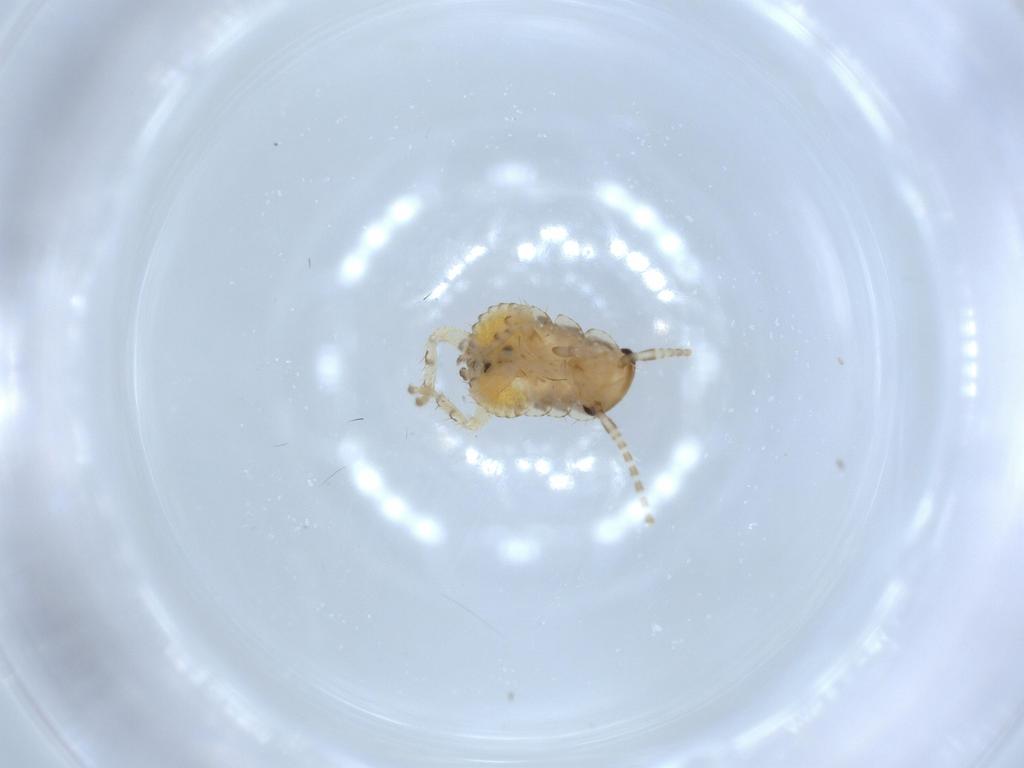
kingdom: Animalia
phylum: Arthropoda
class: Insecta
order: Blattodea
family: Ectobiidae
